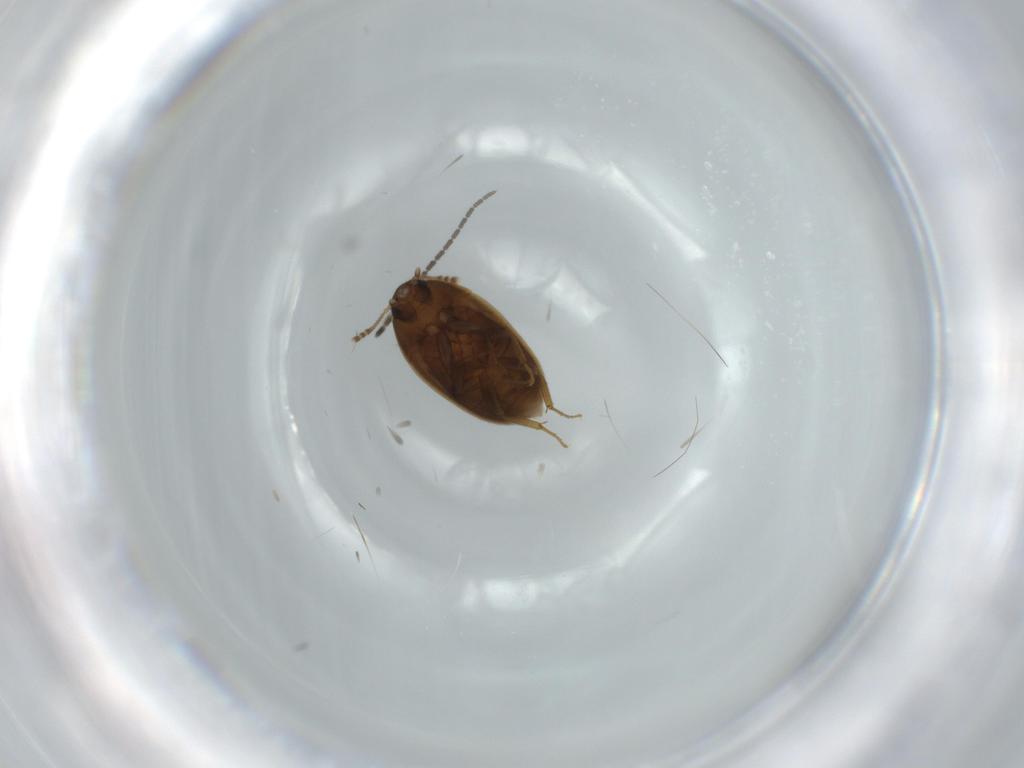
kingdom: Animalia
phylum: Arthropoda
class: Insecta
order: Coleoptera
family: Mycetophagidae
